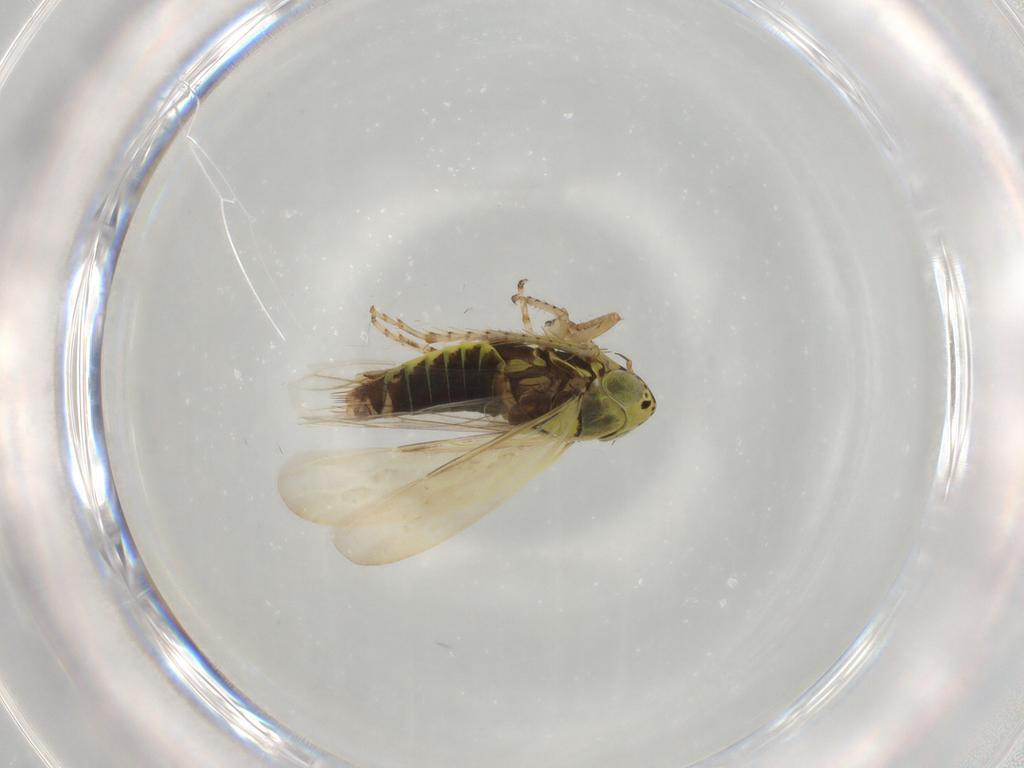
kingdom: Animalia
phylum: Arthropoda
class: Insecta
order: Hemiptera
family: Cicadellidae
